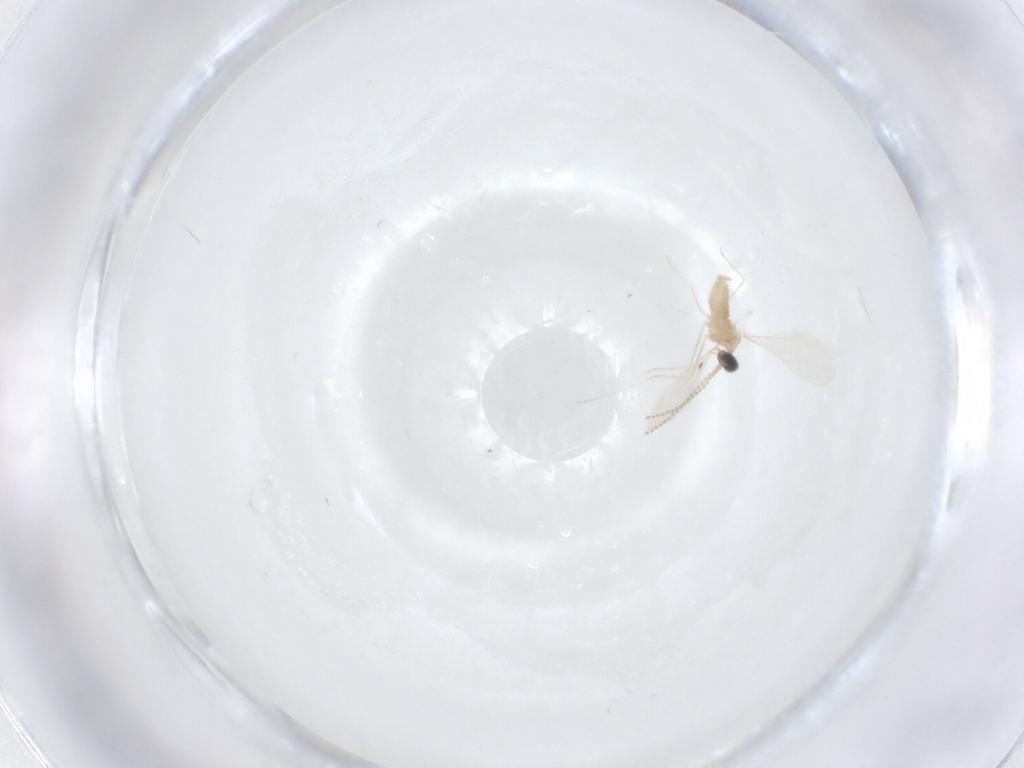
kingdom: Animalia
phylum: Arthropoda
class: Insecta
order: Diptera
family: Cecidomyiidae
